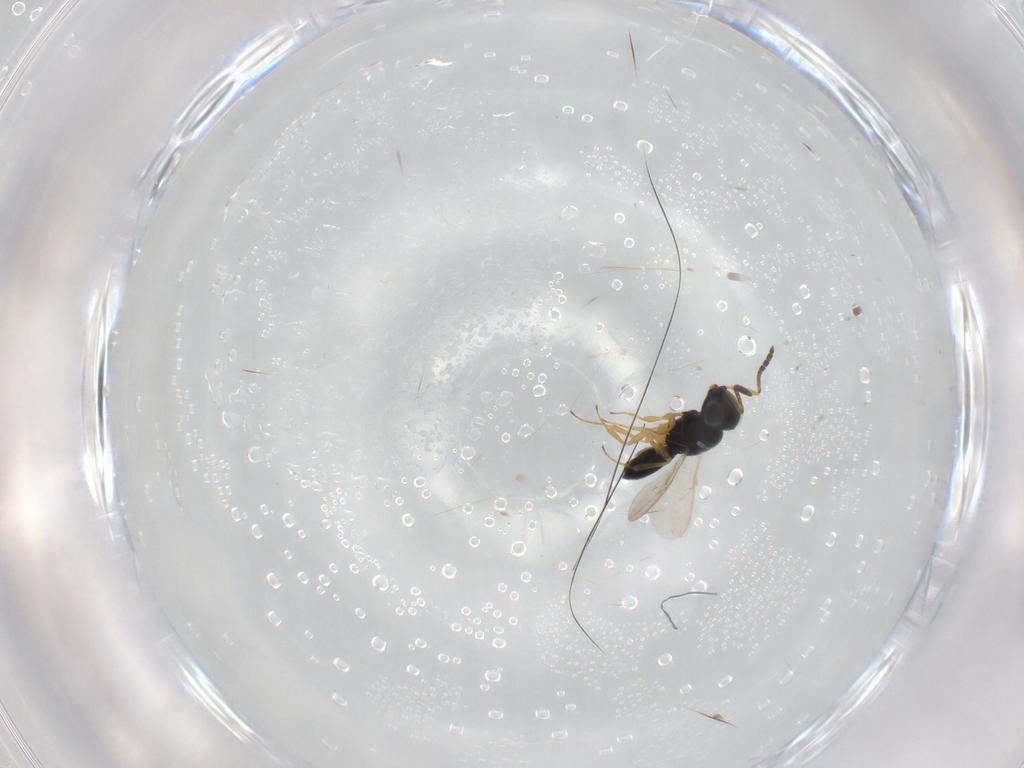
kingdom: Animalia
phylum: Arthropoda
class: Insecta
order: Hymenoptera
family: Scelionidae
